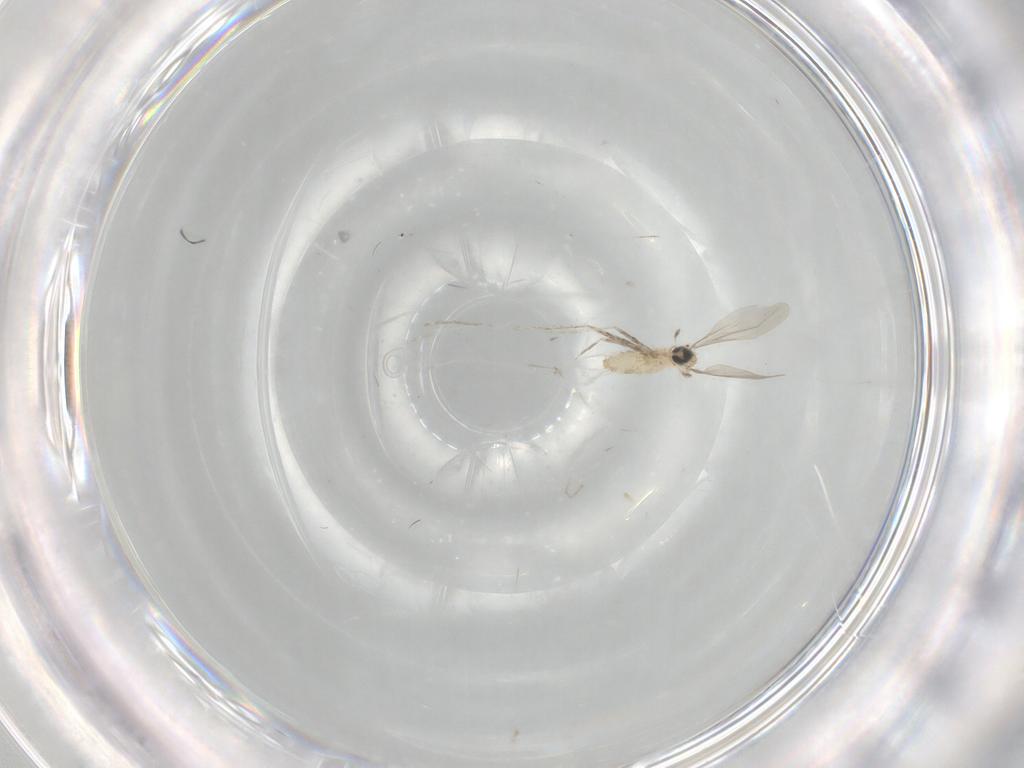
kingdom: Animalia
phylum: Arthropoda
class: Insecta
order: Diptera
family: Cecidomyiidae
